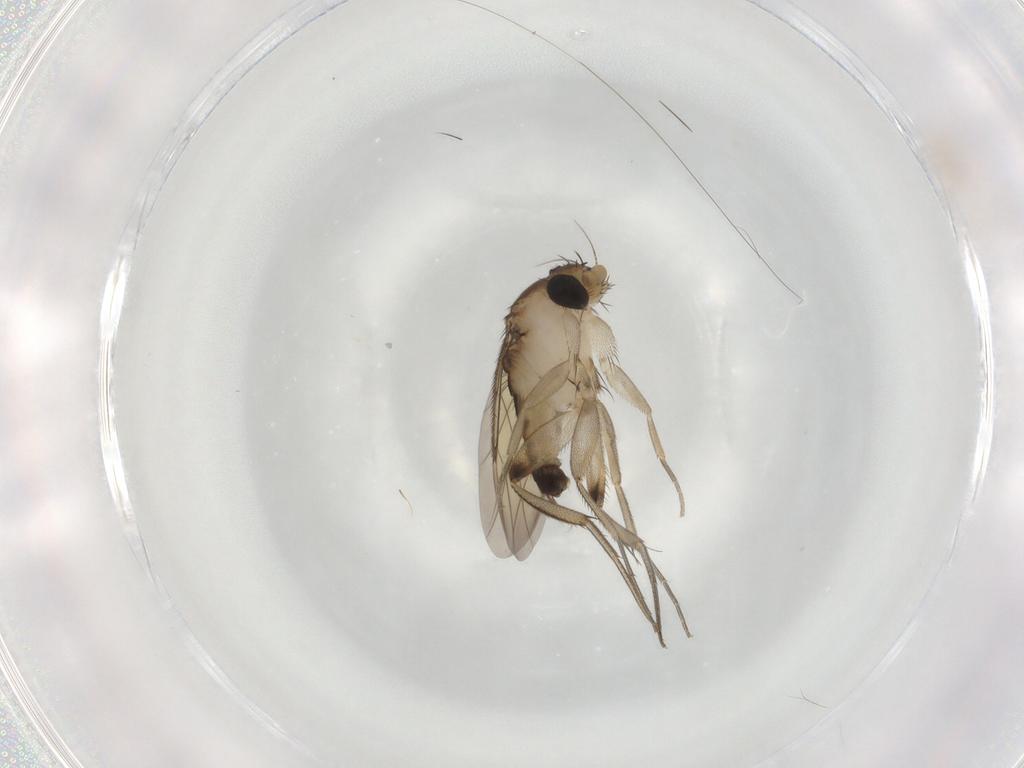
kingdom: Animalia
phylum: Arthropoda
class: Insecta
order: Diptera
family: Phoridae
